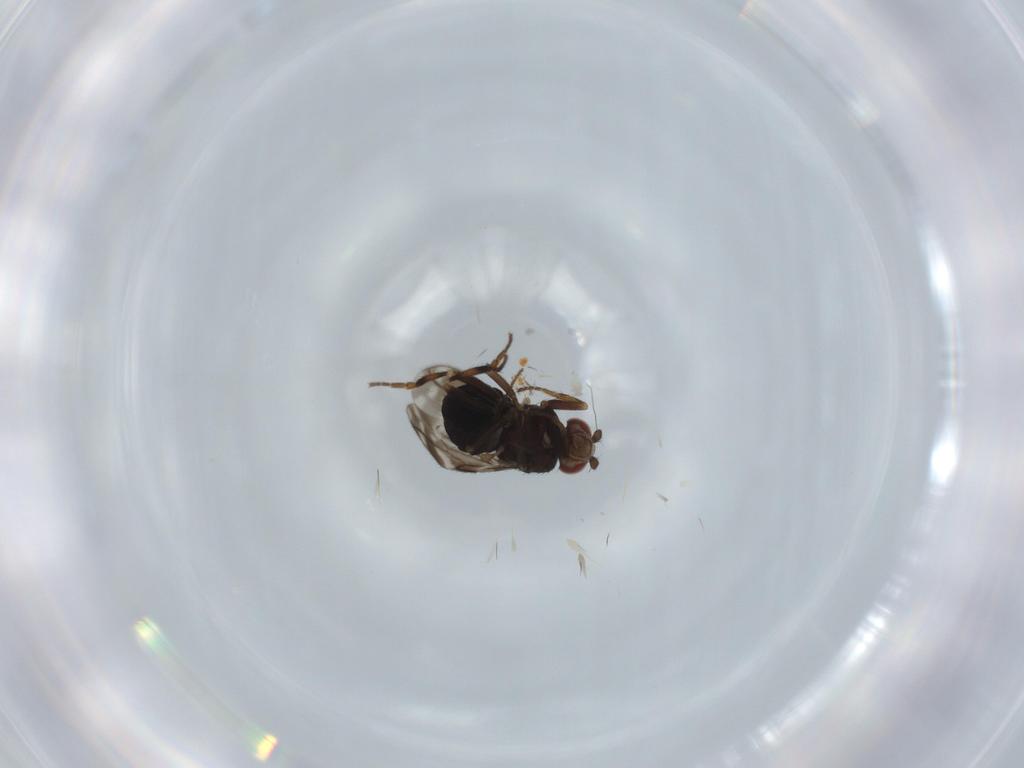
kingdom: Animalia
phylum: Arthropoda
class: Insecta
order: Diptera
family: Sphaeroceridae
